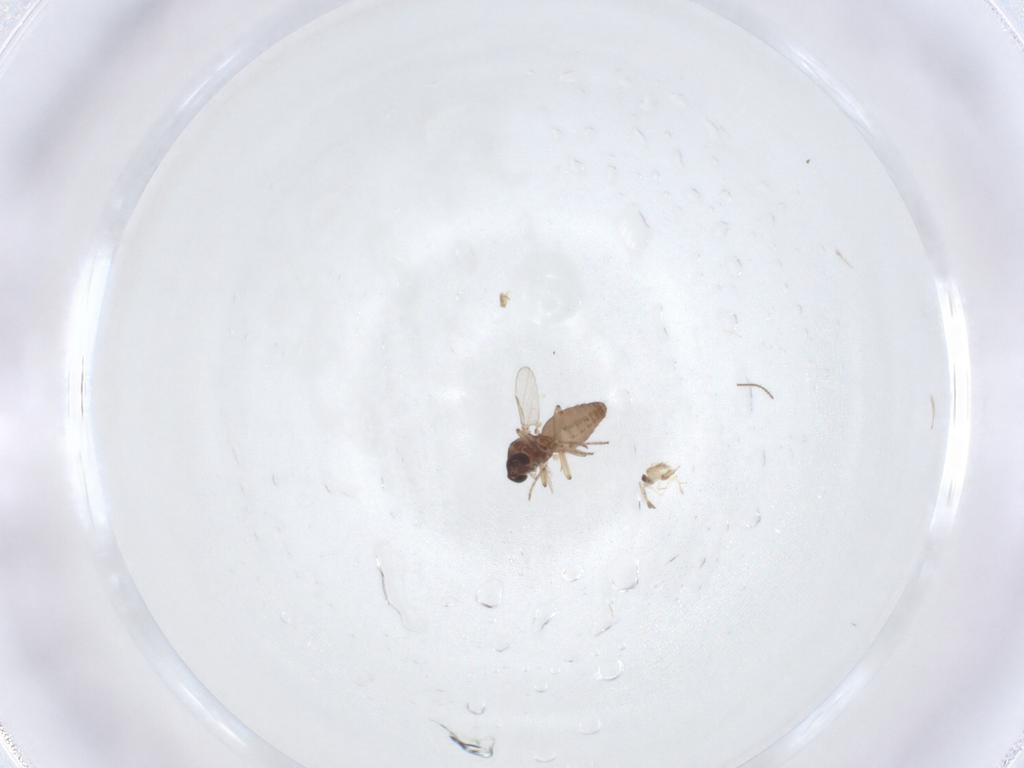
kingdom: Animalia
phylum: Arthropoda
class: Insecta
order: Diptera
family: Ceratopogonidae
